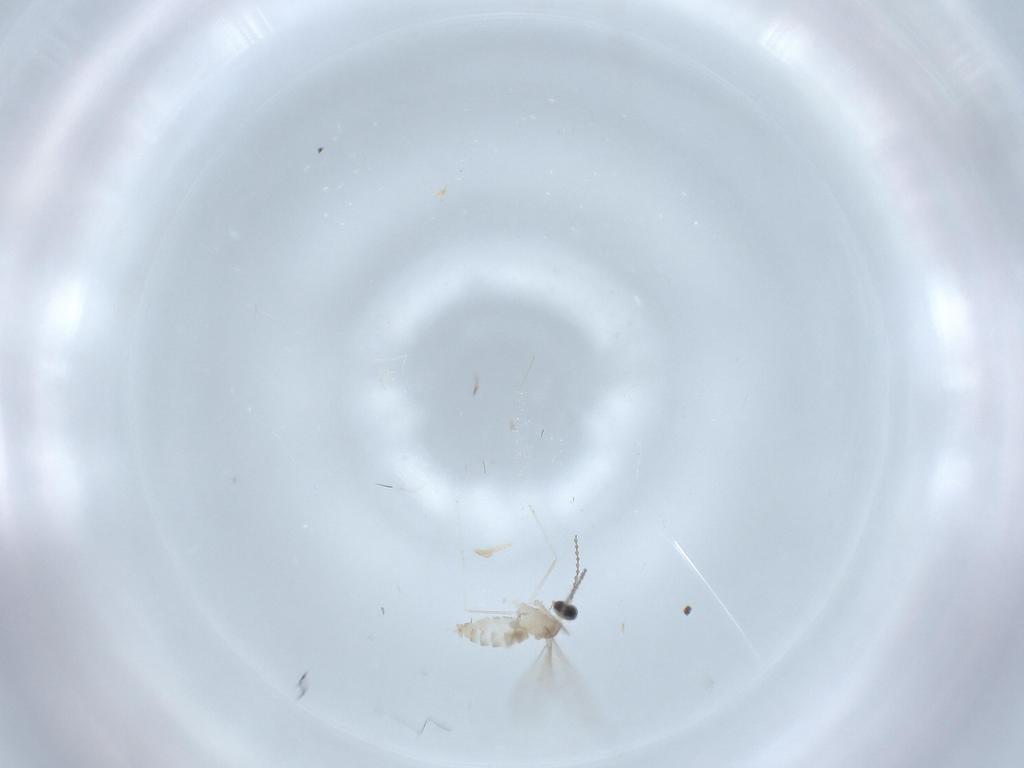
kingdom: Animalia
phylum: Arthropoda
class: Insecta
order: Diptera
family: Cecidomyiidae
